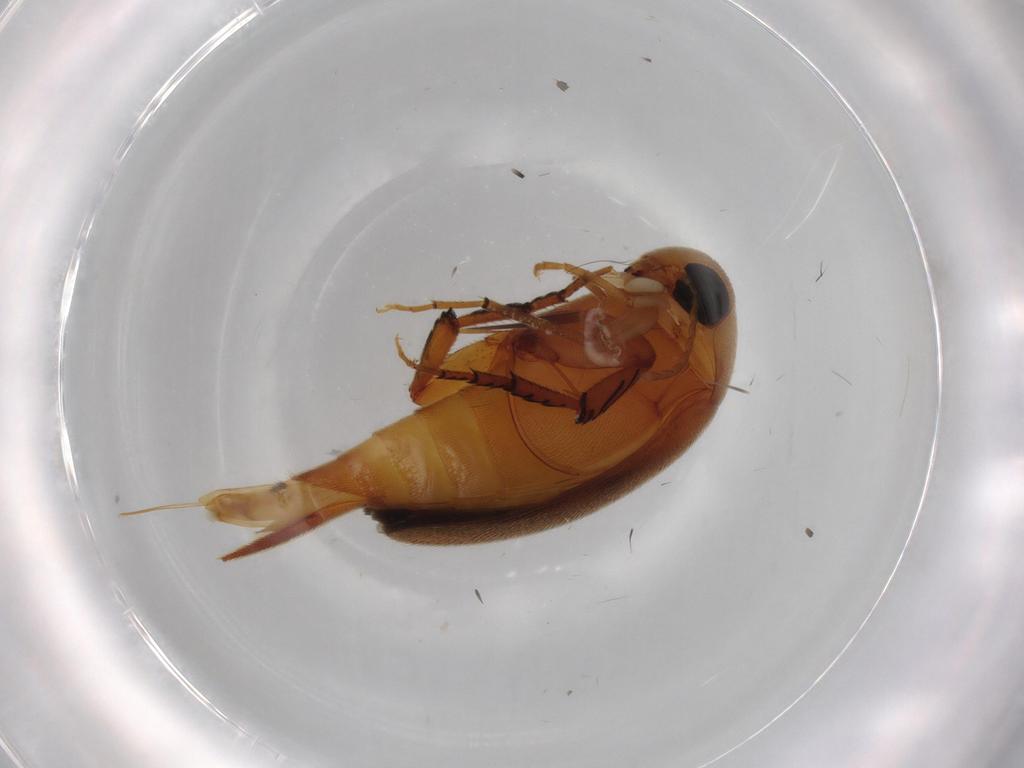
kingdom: Animalia
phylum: Arthropoda
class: Insecta
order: Coleoptera
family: Mordellidae
